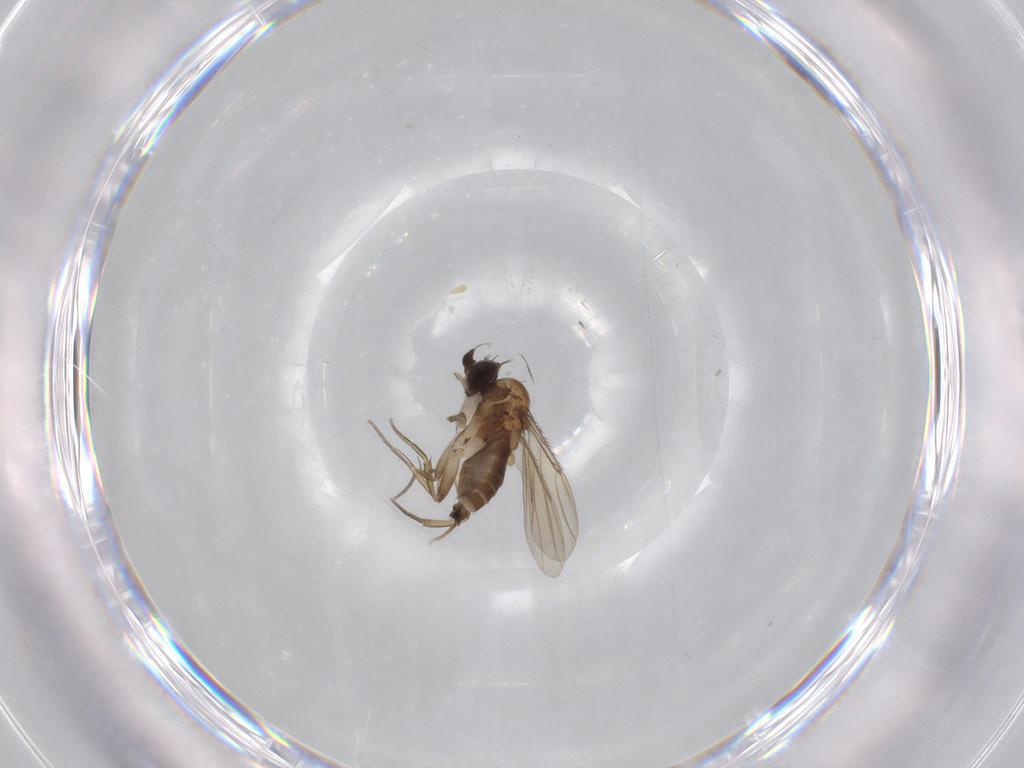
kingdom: Animalia
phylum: Arthropoda
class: Insecta
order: Diptera
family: Phoridae
